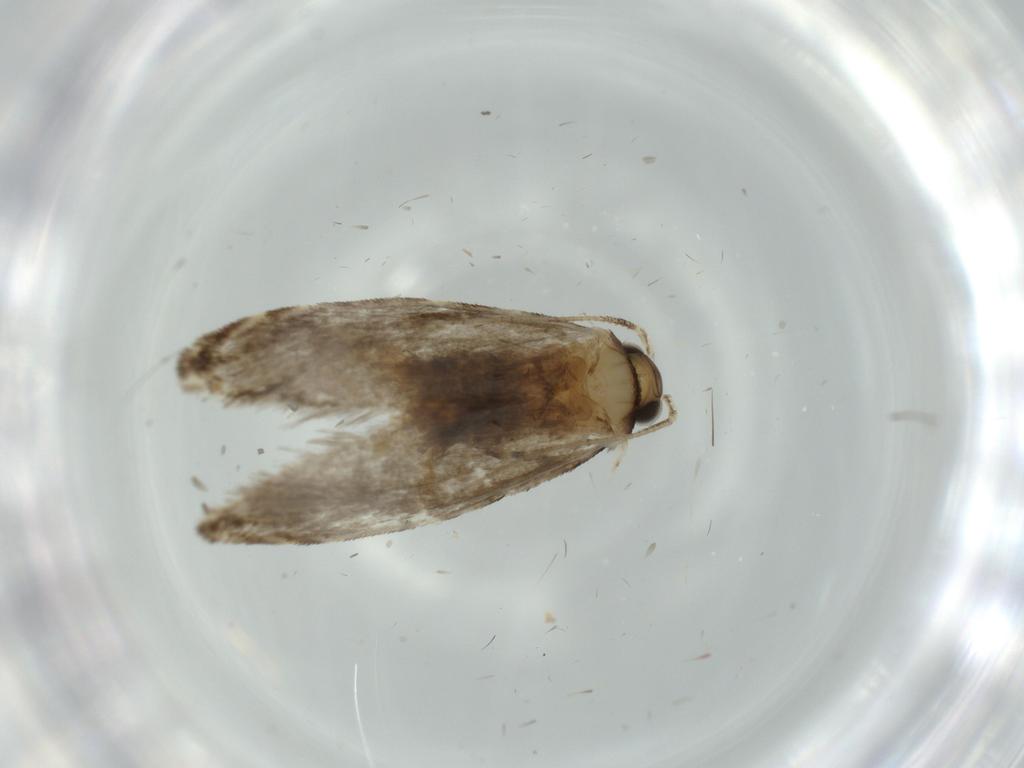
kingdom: Animalia
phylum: Arthropoda
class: Insecta
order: Lepidoptera
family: Tineidae
